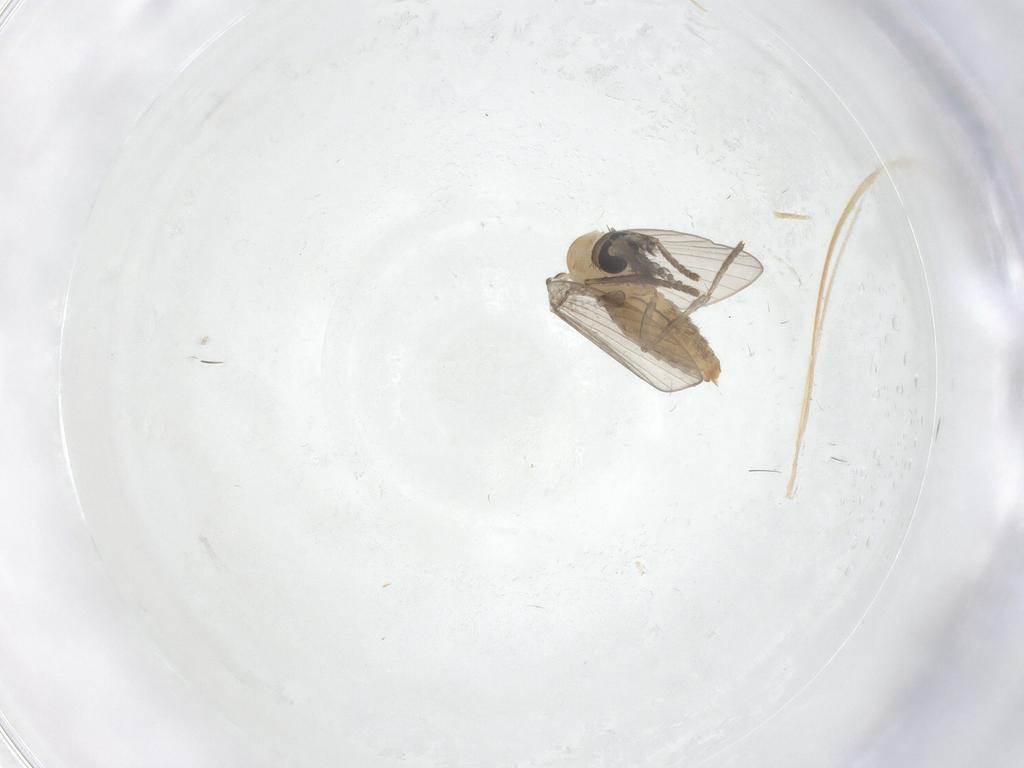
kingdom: Animalia
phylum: Arthropoda
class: Insecta
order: Diptera
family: Psychodidae
